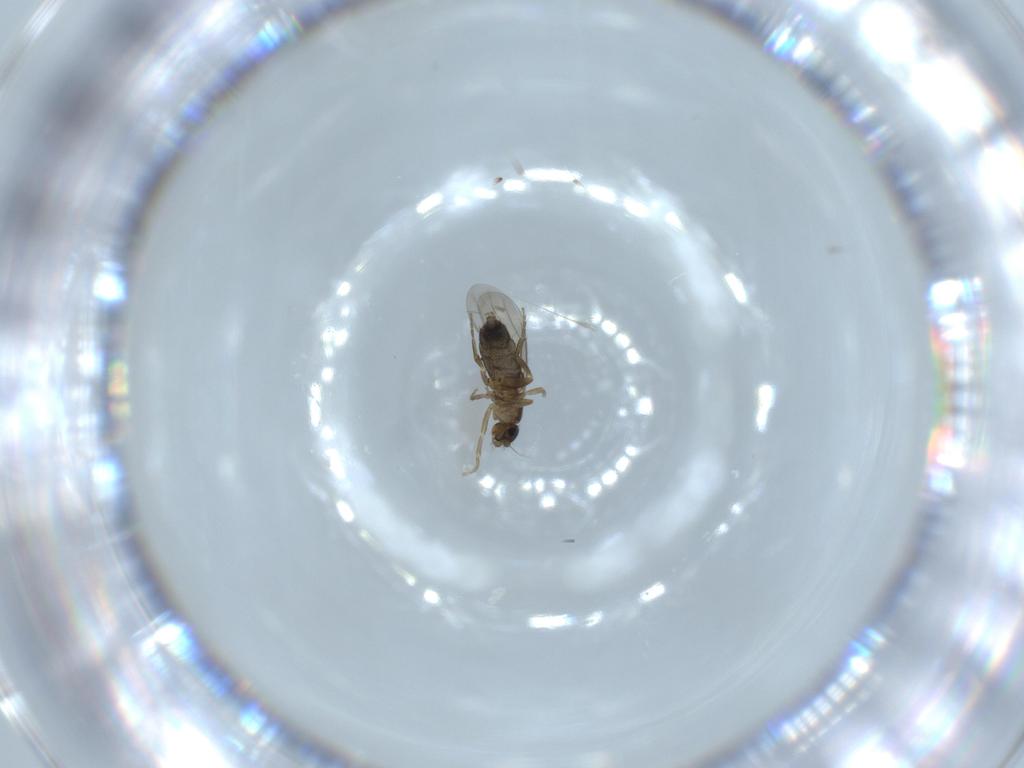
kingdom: Animalia
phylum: Arthropoda
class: Insecta
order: Diptera
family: Phoridae
